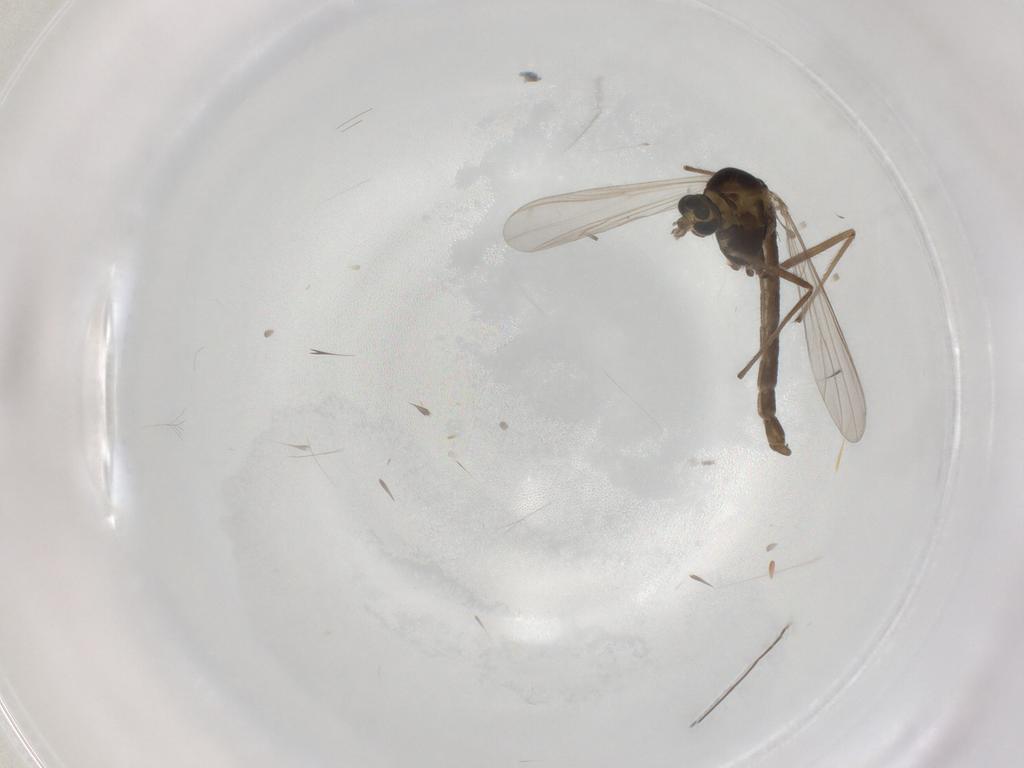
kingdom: Animalia
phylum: Arthropoda
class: Insecta
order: Diptera
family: Chironomidae
